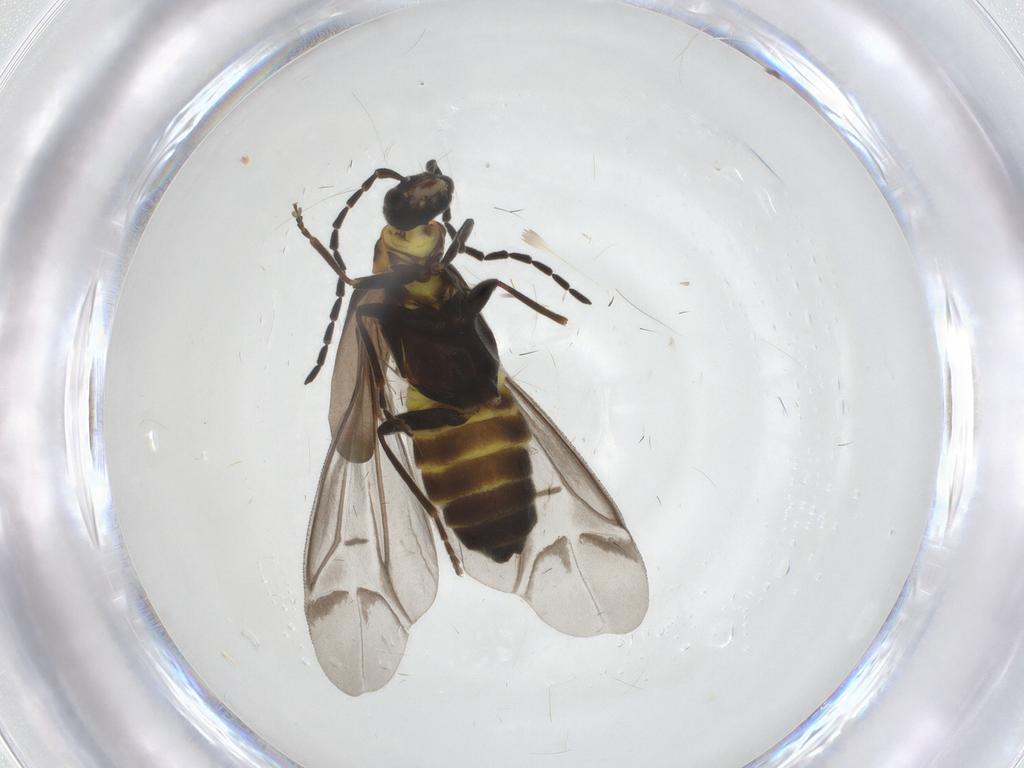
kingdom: Animalia
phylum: Arthropoda
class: Insecta
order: Coleoptera
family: Cantharidae
